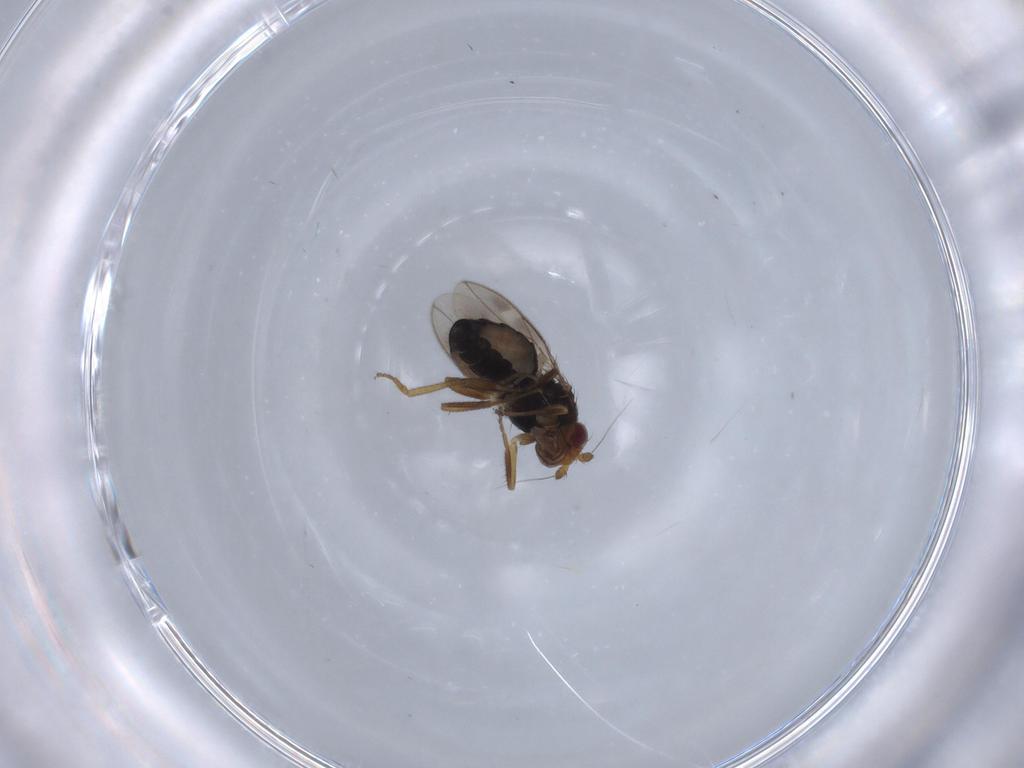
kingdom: Animalia
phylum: Arthropoda
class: Insecta
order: Diptera
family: Sphaeroceridae
